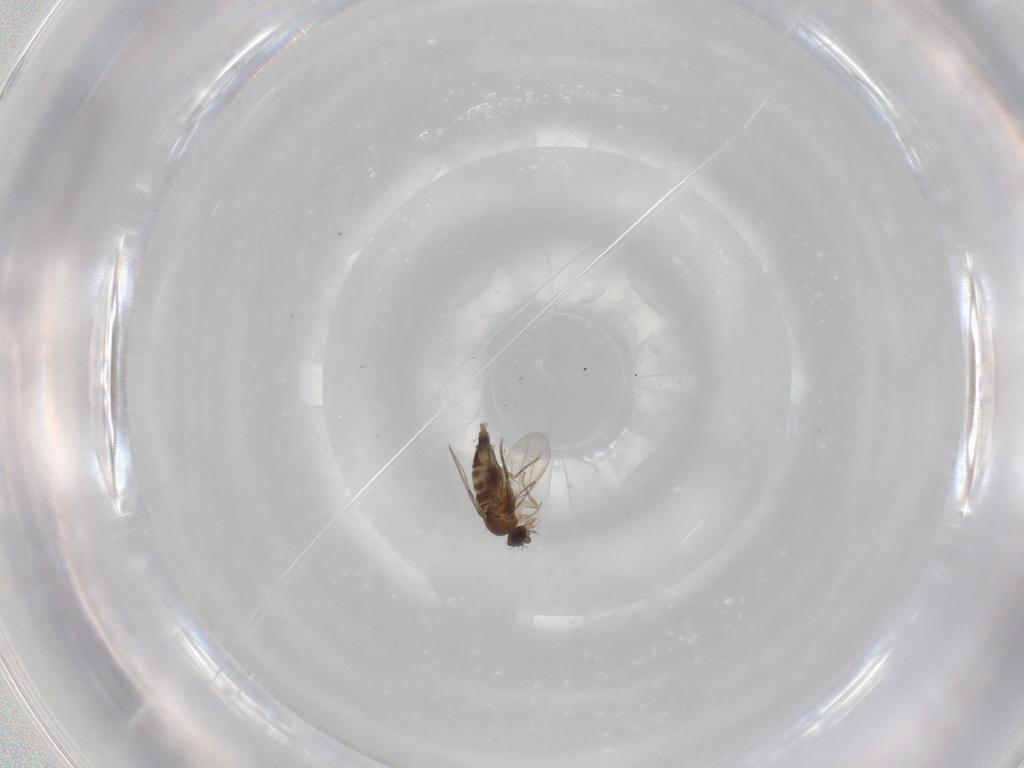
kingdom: Animalia
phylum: Arthropoda
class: Insecta
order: Diptera
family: Phoridae
